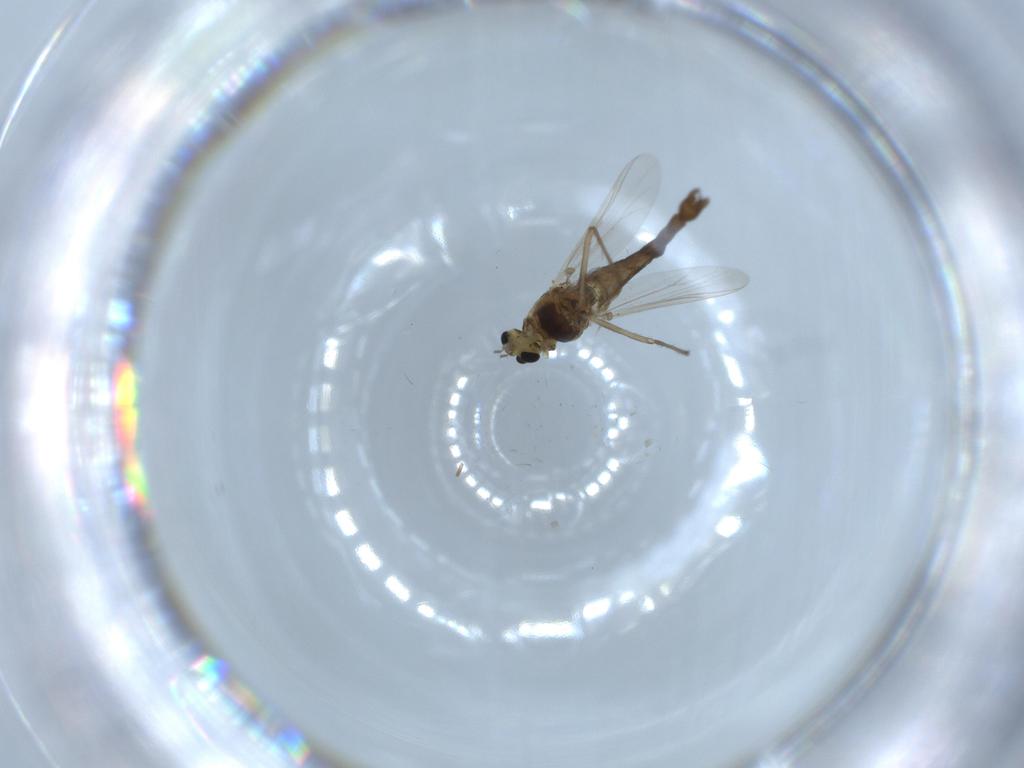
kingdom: Animalia
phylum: Arthropoda
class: Insecta
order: Diptera
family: Chironomidae
